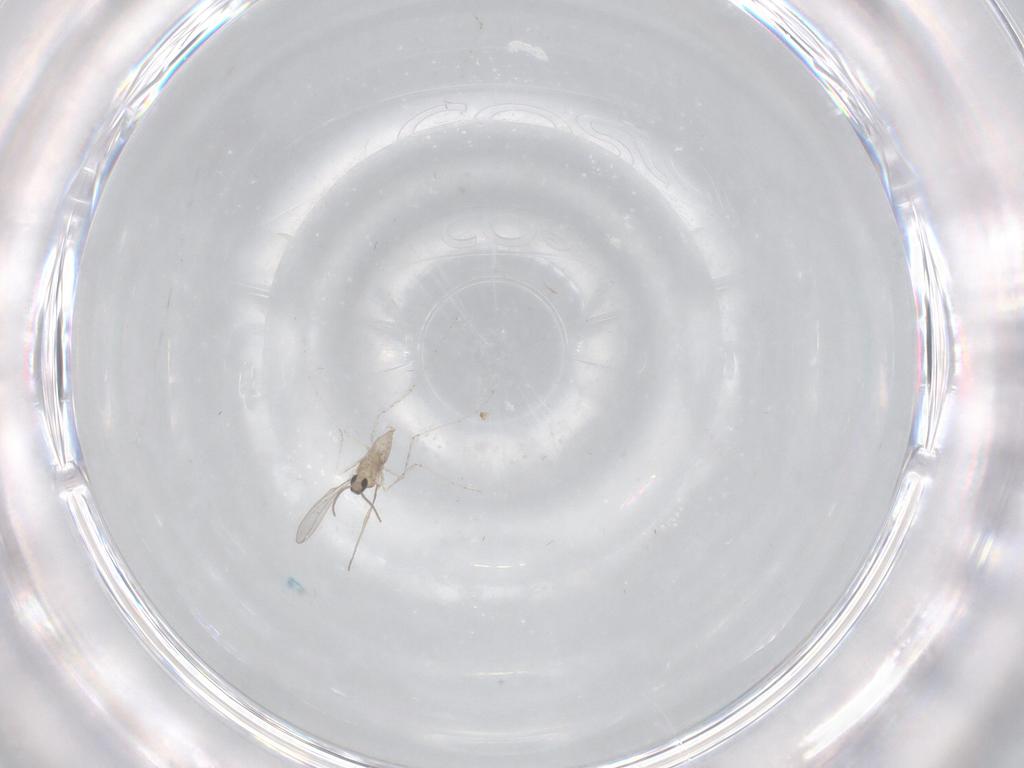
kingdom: Animalia
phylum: Arthropoda
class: Insecta
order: Diptera
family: Cecidomyiidae
